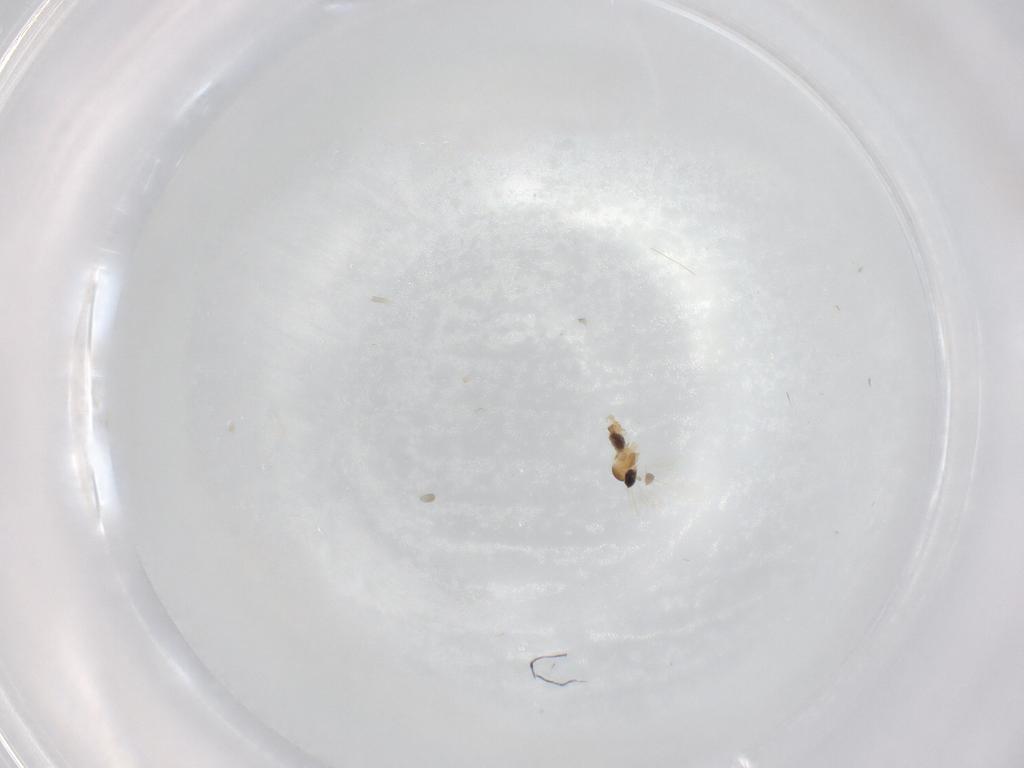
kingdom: Animalia
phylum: Arthropoda
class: Insecta
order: Diptera
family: Cecidomyiidae
